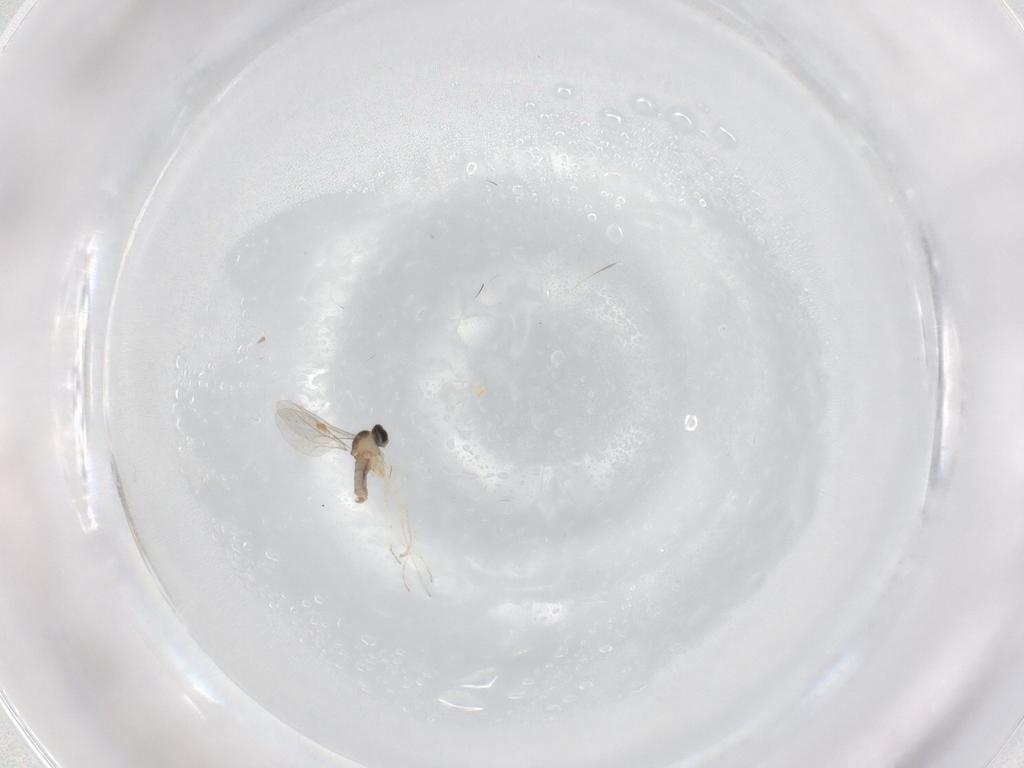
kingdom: Animalia
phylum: Arthropoda
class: Insecta
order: Diptera
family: Cecidomyiidae
